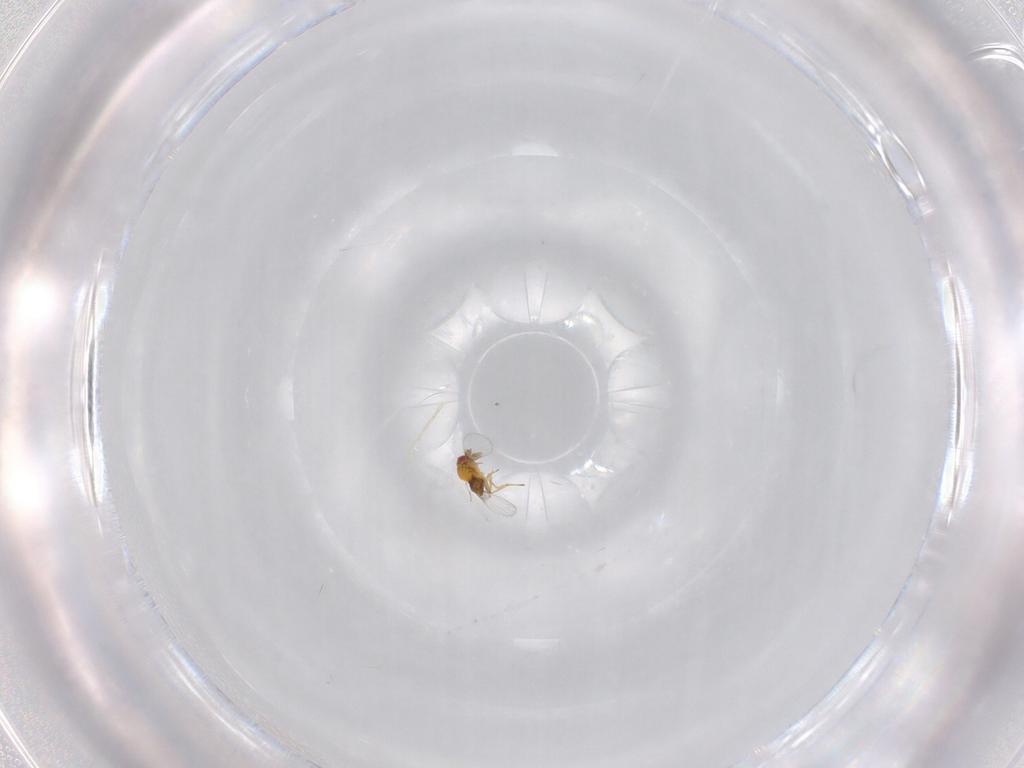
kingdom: Animalia
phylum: Arthropoda
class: Insecta
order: Hymenoptera
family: Trichogrammatidae
